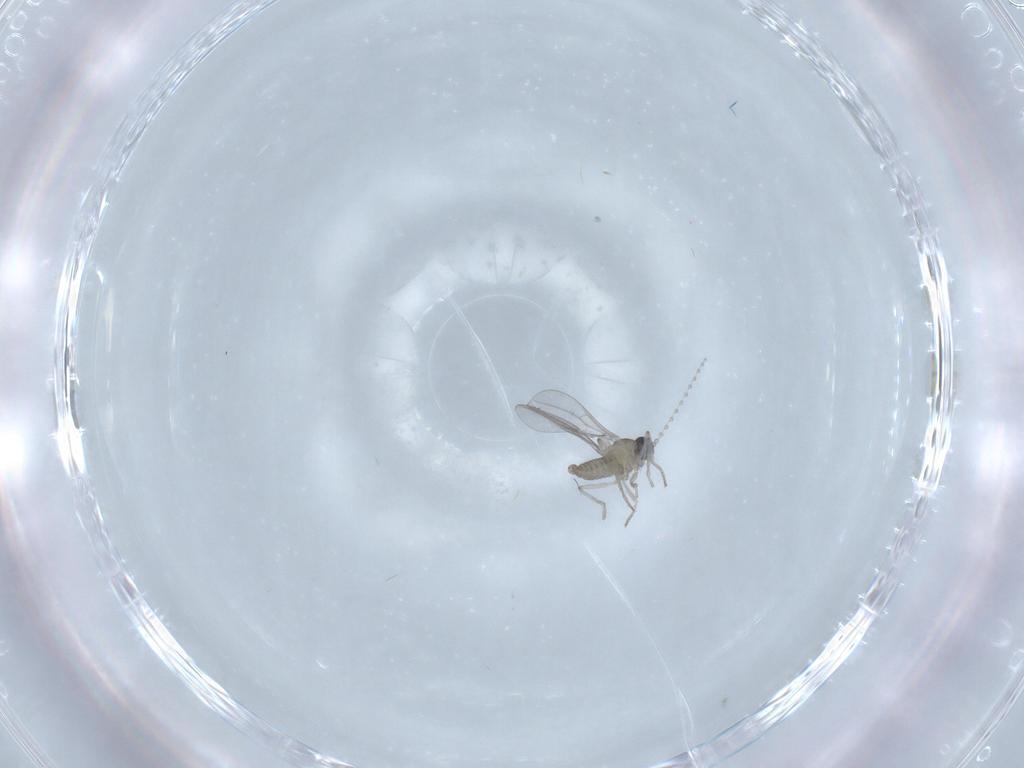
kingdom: Animalia
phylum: Arthropoda
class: Insecta
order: Diptera
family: Cecidomyiidae
